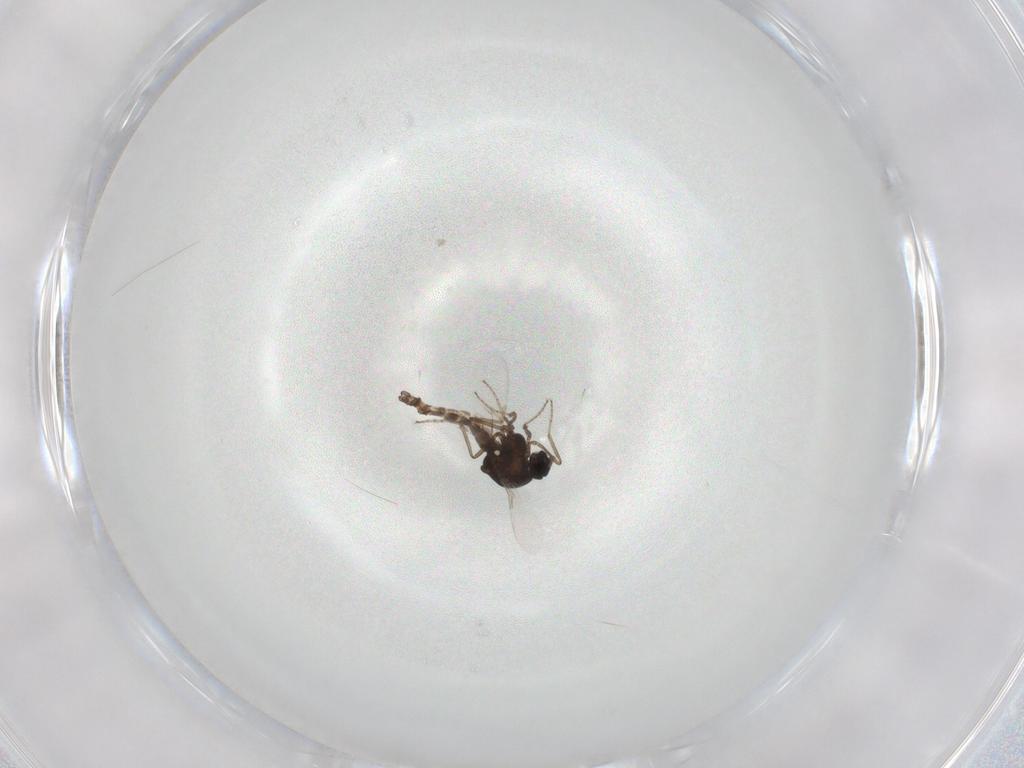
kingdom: Animalia
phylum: Arthropoda
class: Insecta
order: Diptera
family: Ceratopogonidae
